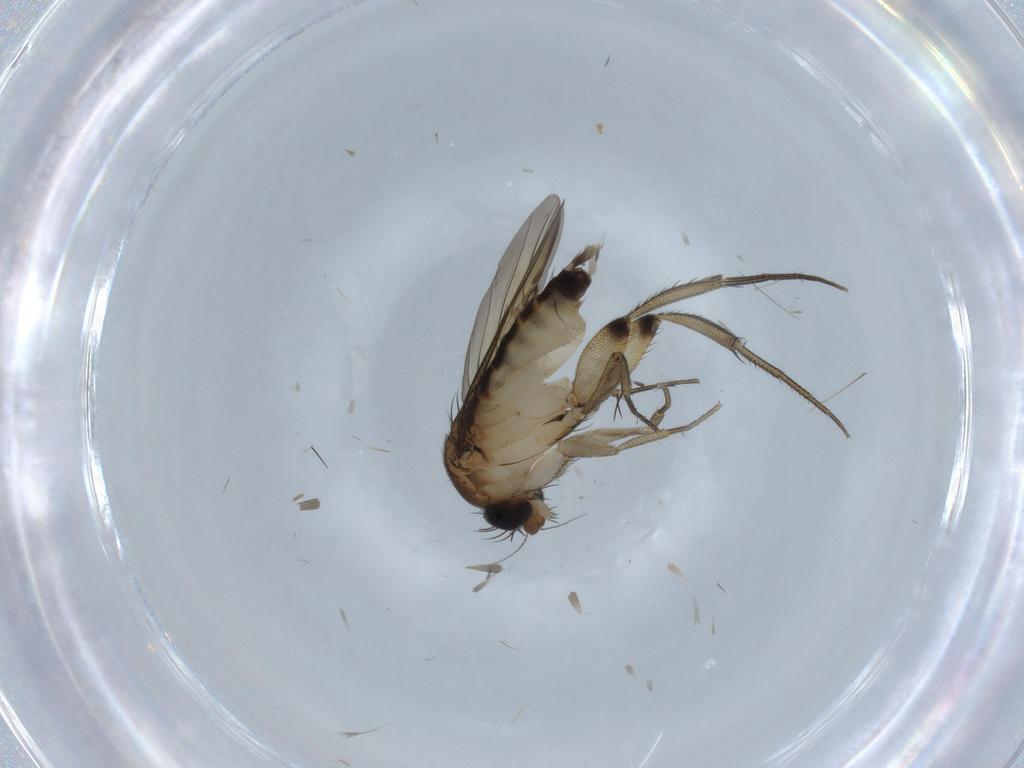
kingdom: Animalia
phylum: Arthropoda
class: Insecta
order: Diptera
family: Phoridae
